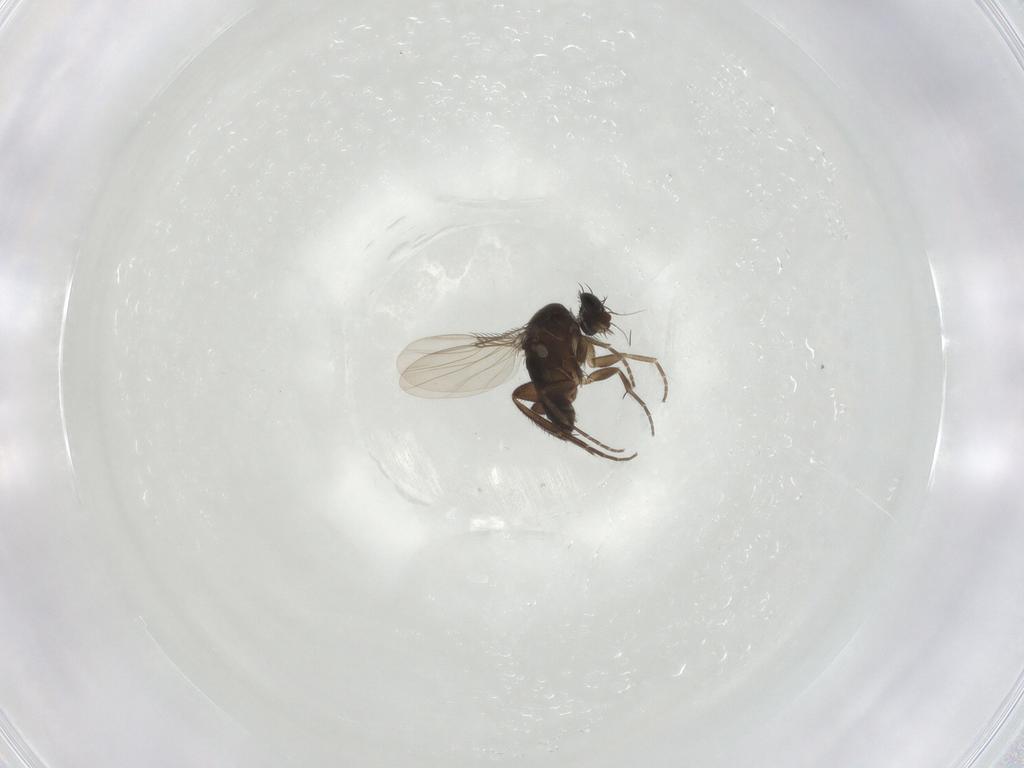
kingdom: Animalia
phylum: Arthropoda
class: Insecta
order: Diptera
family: Phoridae
